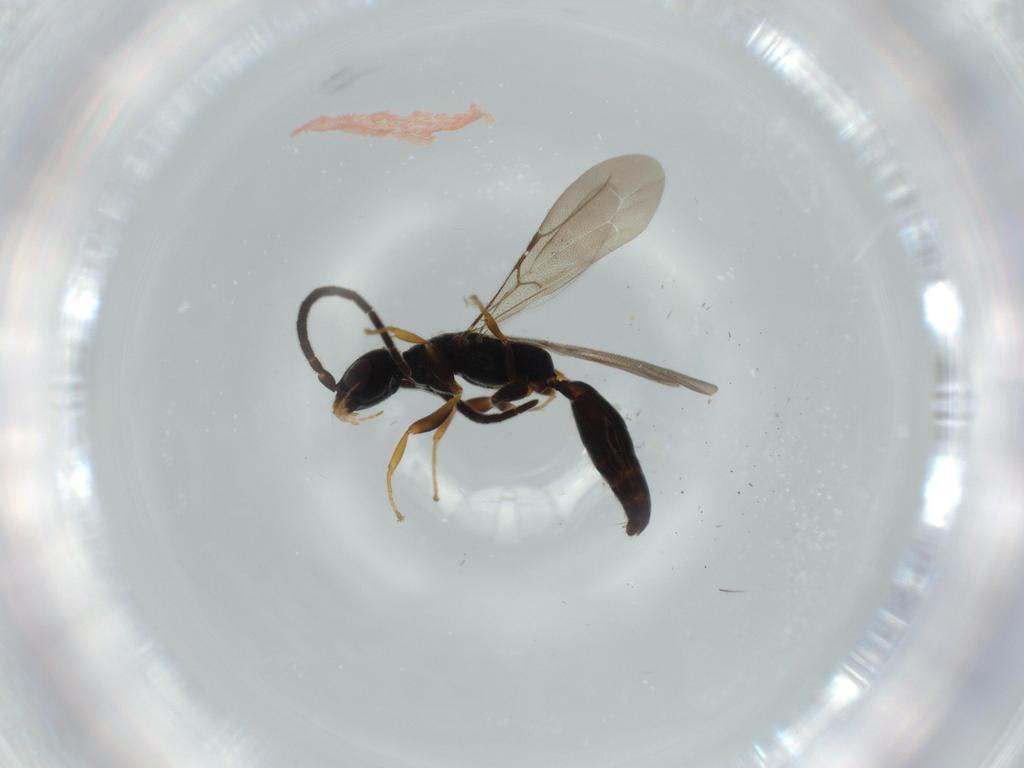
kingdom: Animalia
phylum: Arthropoda
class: Insecta
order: Hymenoptera
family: Bethylidae
